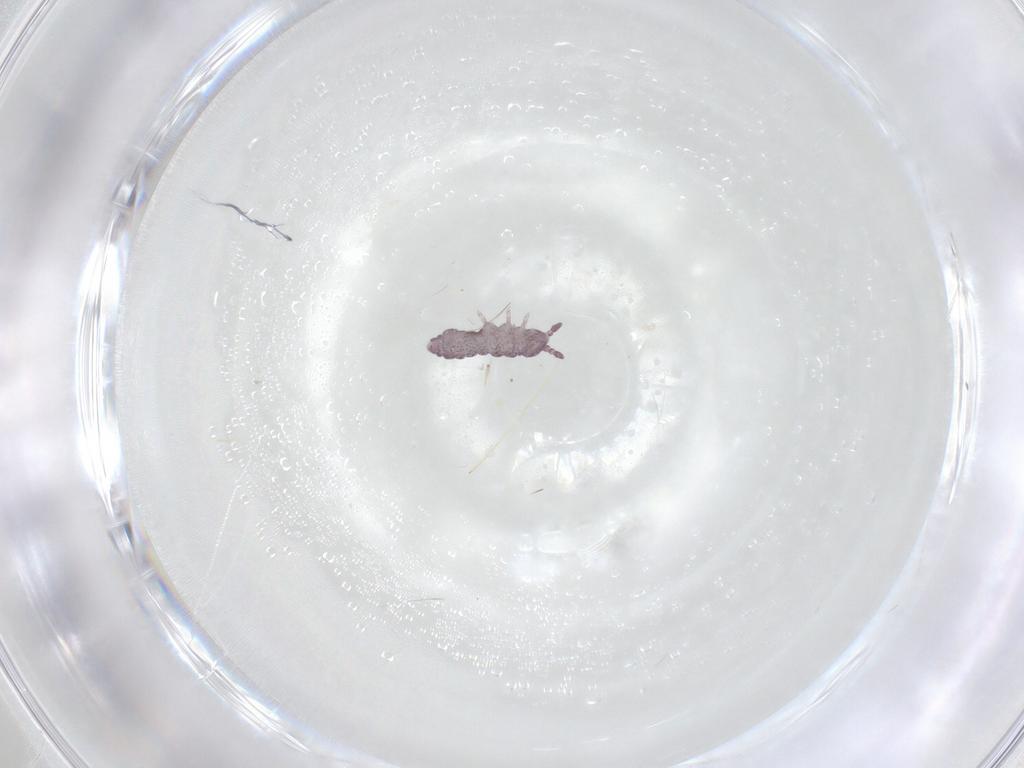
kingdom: Animalia
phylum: Arthropoda
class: Collembola
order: Poduromorpha
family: Hypogastruridae
